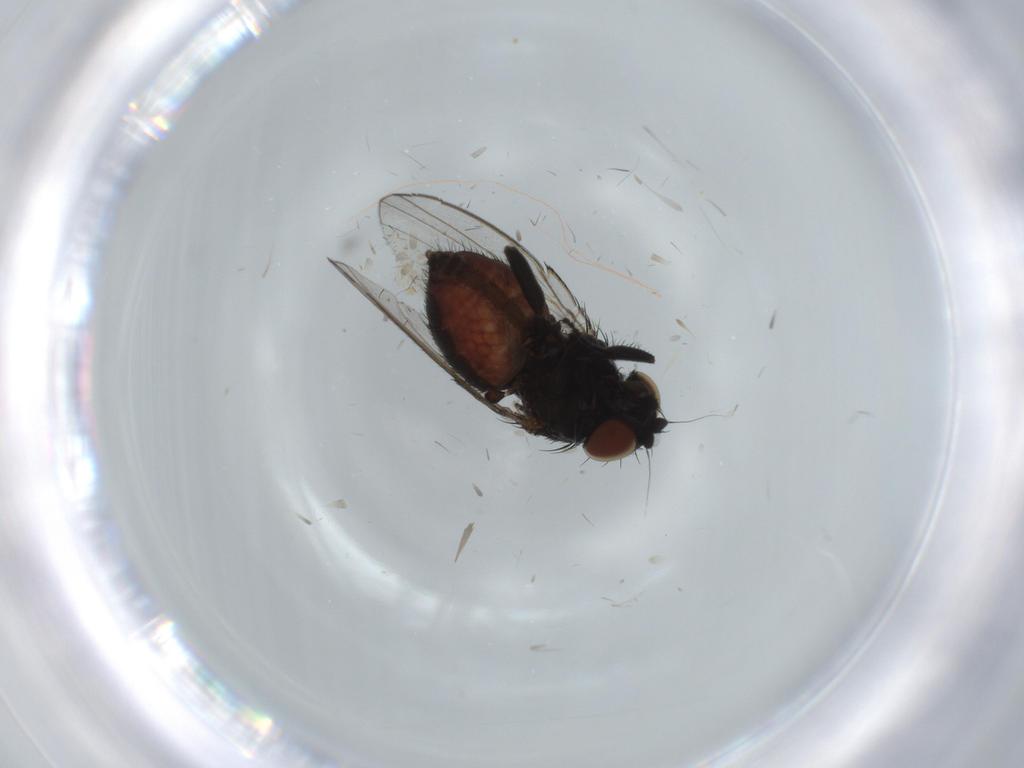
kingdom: Animalia
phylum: Arthropoda
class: Insecta
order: Diptera
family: Milichiidae
